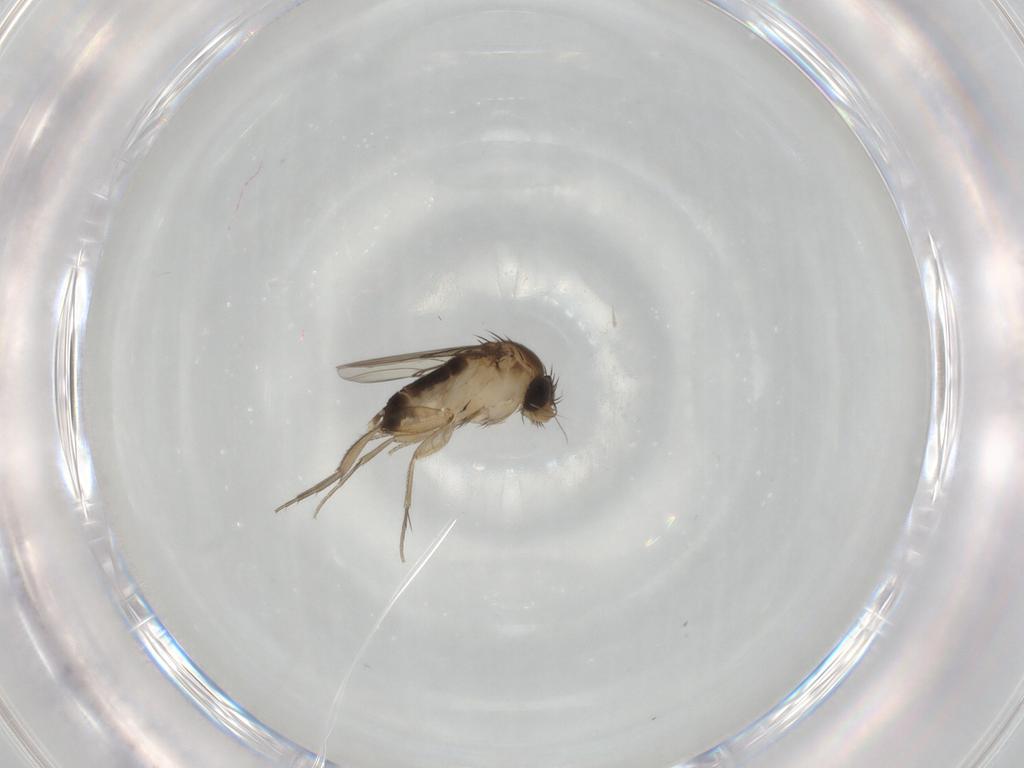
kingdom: Animalia
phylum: Arthropoda
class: Insecta
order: Diptera
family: Phoridae
